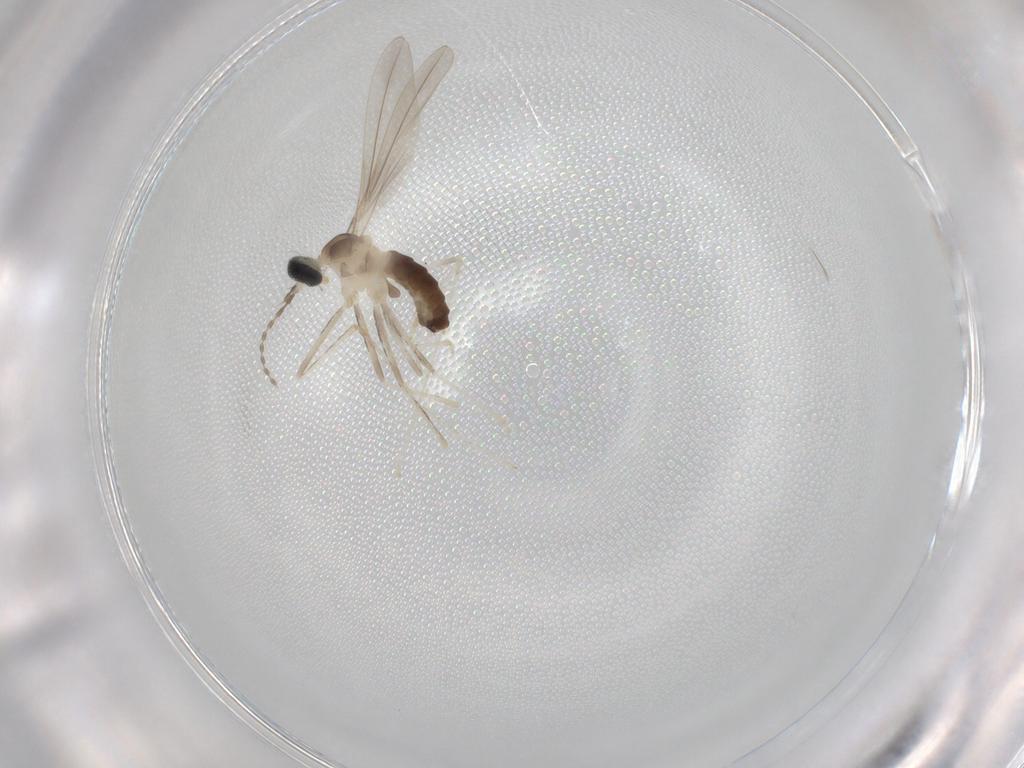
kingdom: Animalia
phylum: Arthropoda
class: Insecta
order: Diptera
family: Cecidomyiidae
